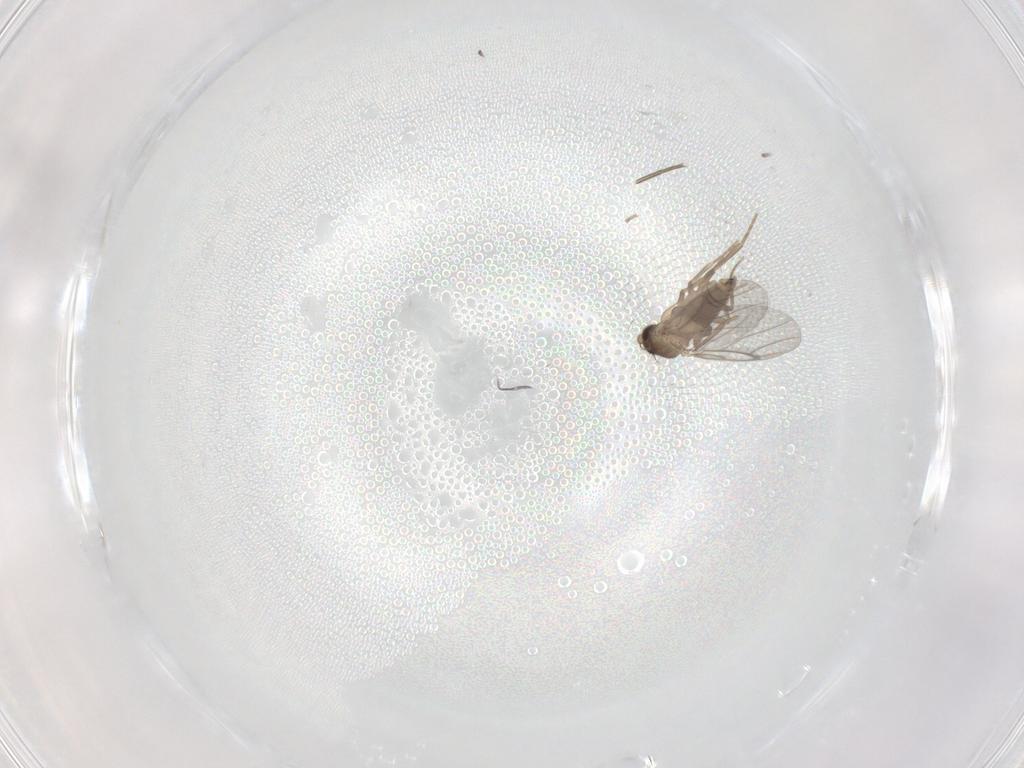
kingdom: Animalia
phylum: Arthropoda
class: Insecta
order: Diptera
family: Phoridae
